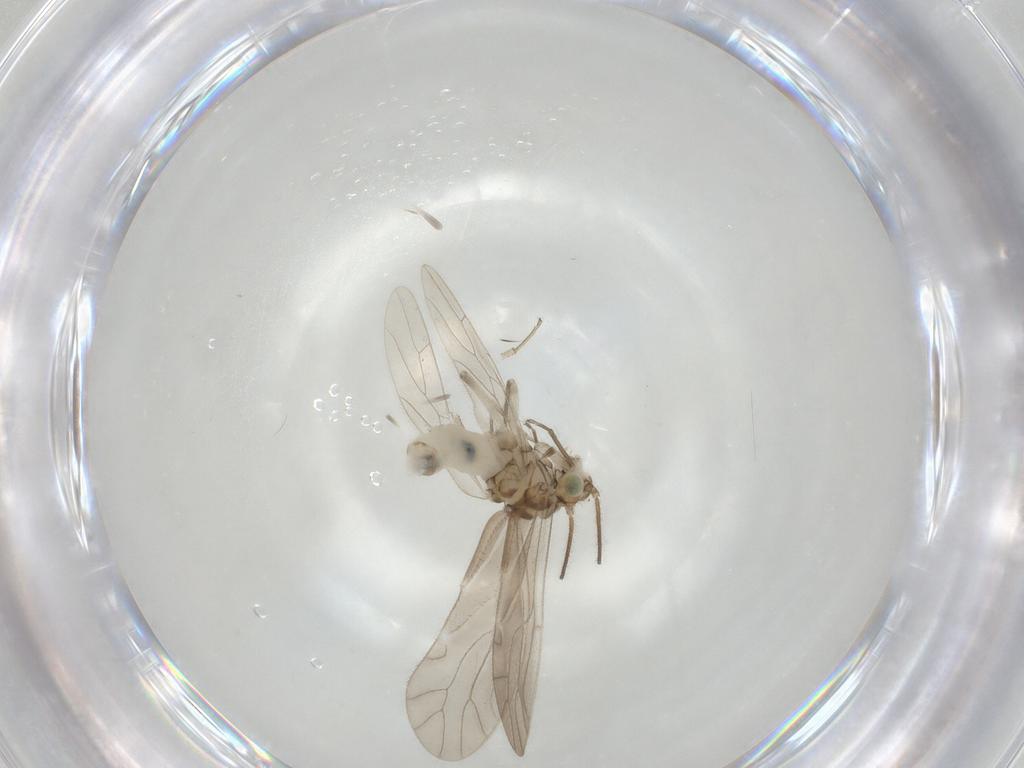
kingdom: Animalia
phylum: Arthropoda
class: Insecta
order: Psocodea
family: Caeciliusidae
